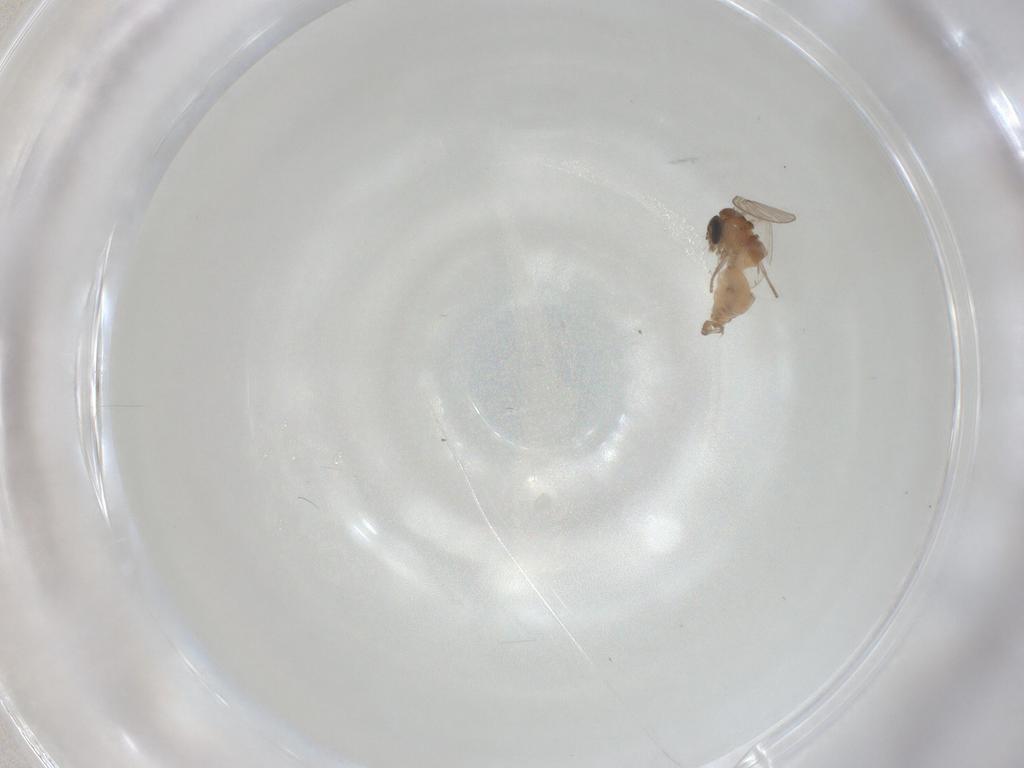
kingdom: Animalia
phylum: Arthropoda
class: Insecta
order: Diptera
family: Psychodidae
